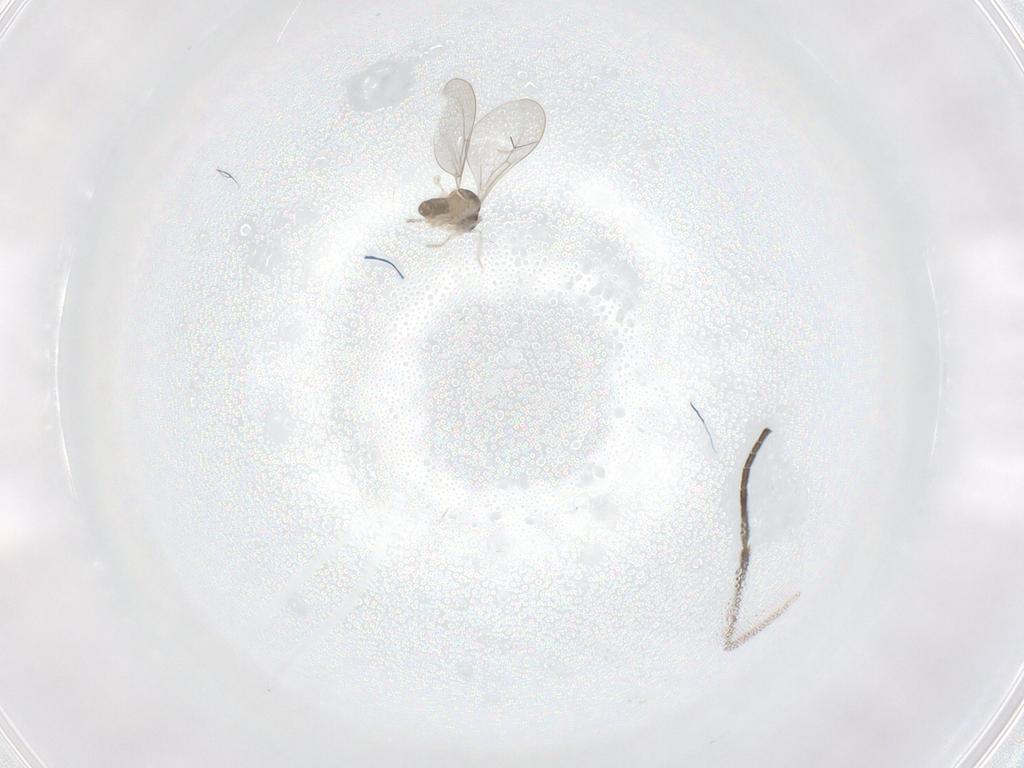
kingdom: Animalia
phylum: Arthropoda
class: Insecta
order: Diptera
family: Cecidomyiidae
